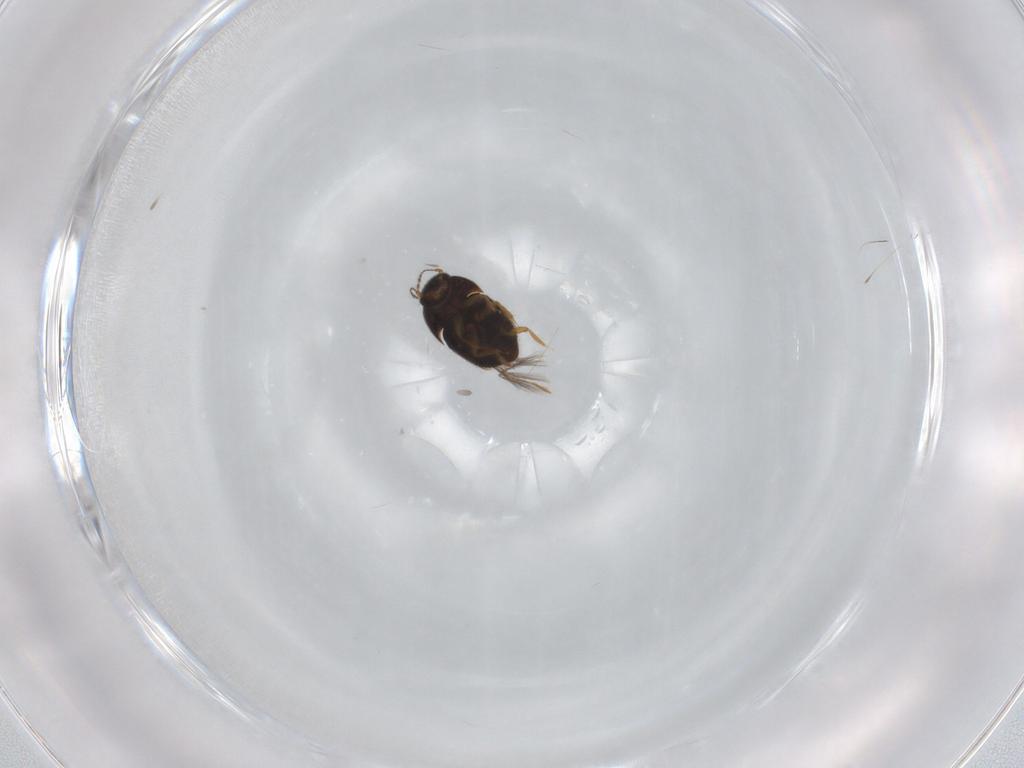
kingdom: Animalia
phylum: Arthropoda
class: Insecta
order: Coleoptera
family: Ptiliidae
